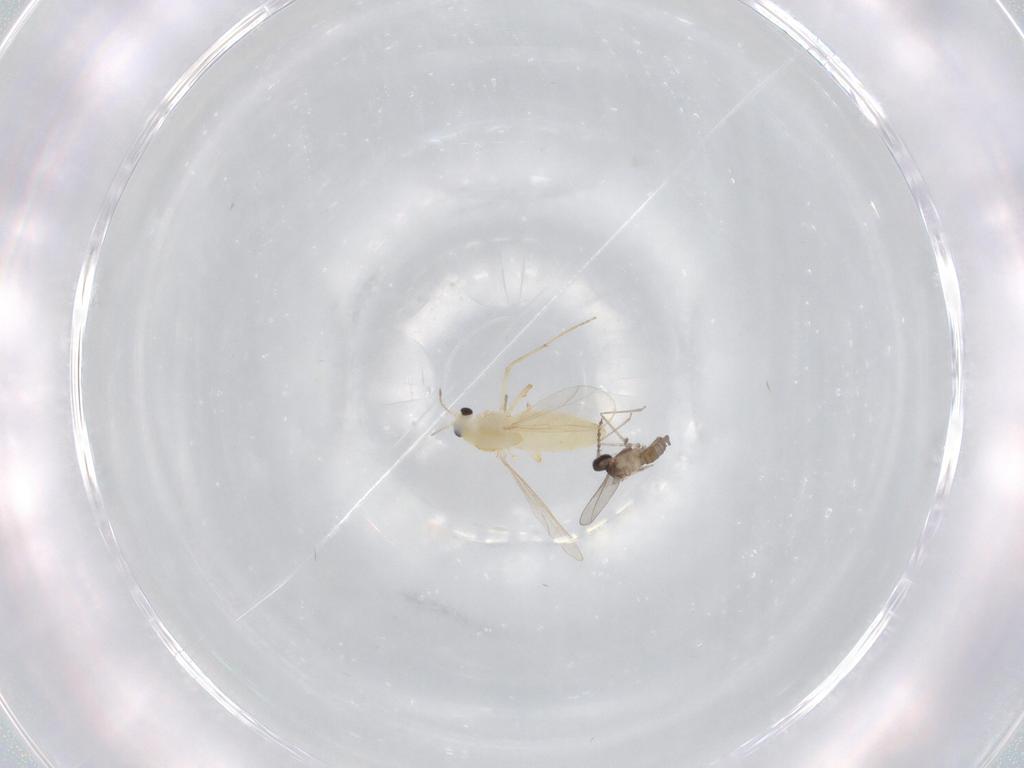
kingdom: Animalia
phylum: Arthropoda
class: Insecta
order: Diptera
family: Chironomidae
